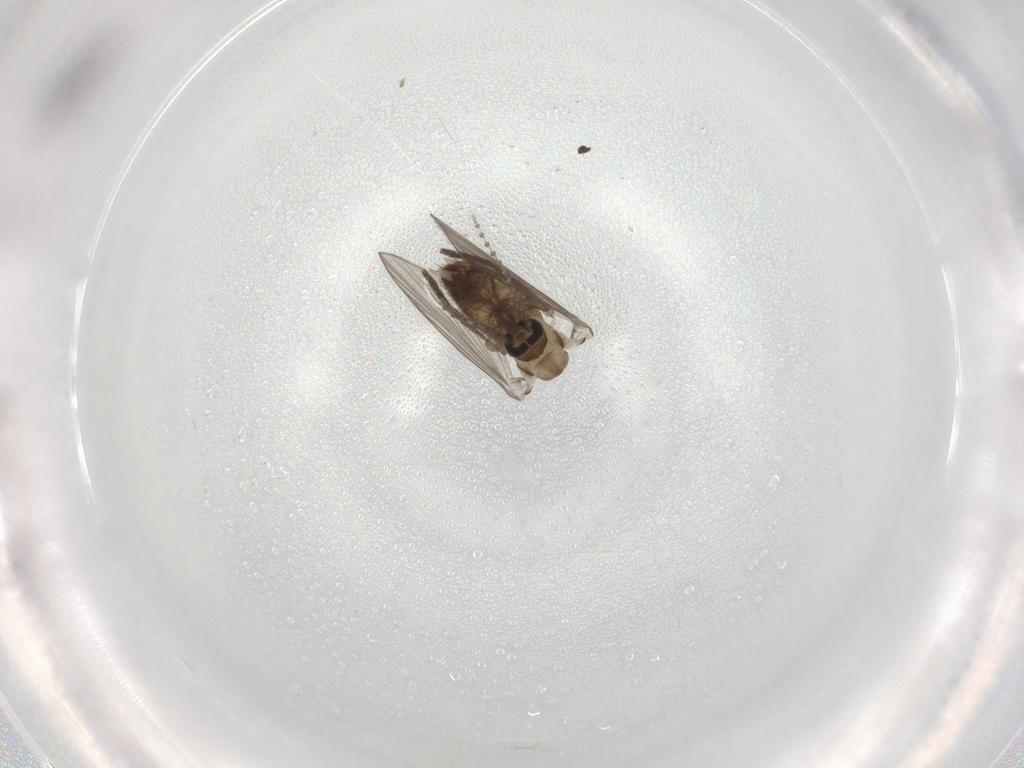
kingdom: Animalia
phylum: Arthropoda
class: Insecta
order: Diptera
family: Psychodidae
